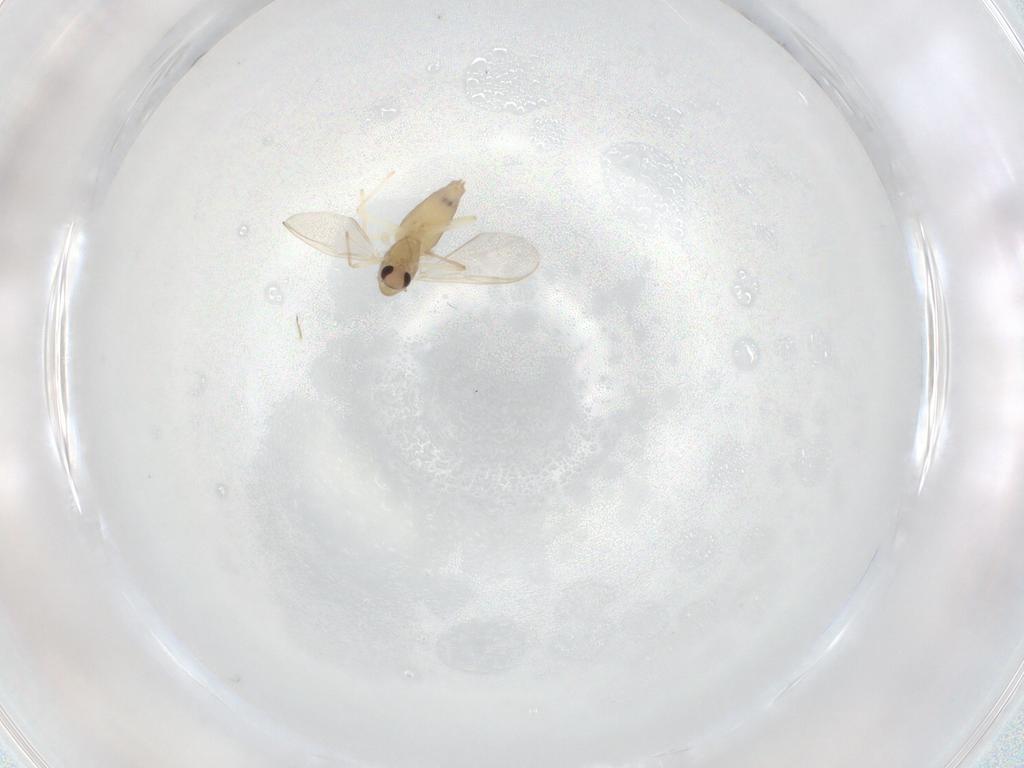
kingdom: Animalia
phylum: Arthropoda
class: Insecta
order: Diptera
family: Chironomidae
